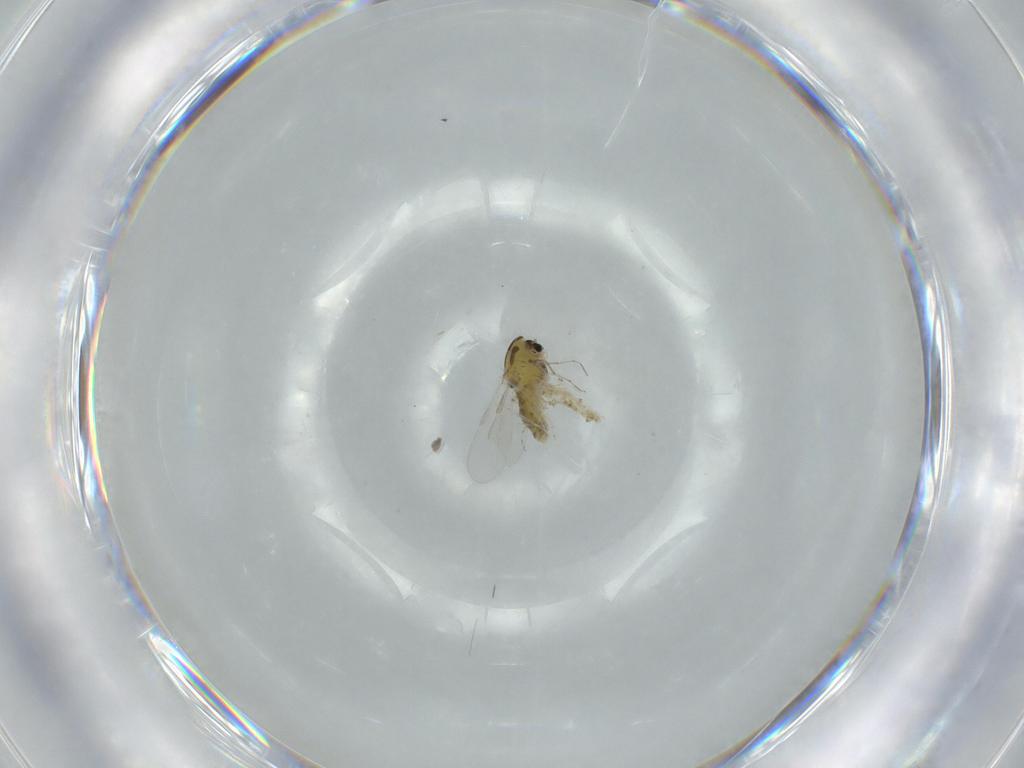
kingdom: Animalia
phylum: Arthropoda
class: Insecta
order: Diptera
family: Chironomidae
